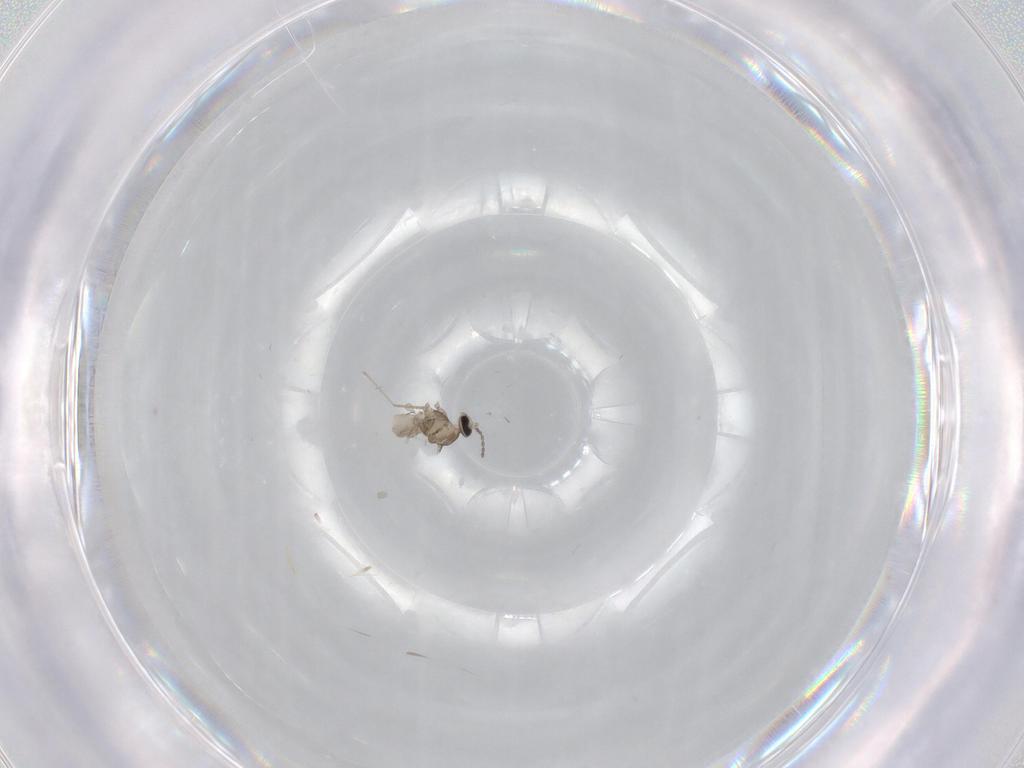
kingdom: Animalia
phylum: Arthropoda
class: Insecta
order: Diptera
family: Cecidomyiidae
